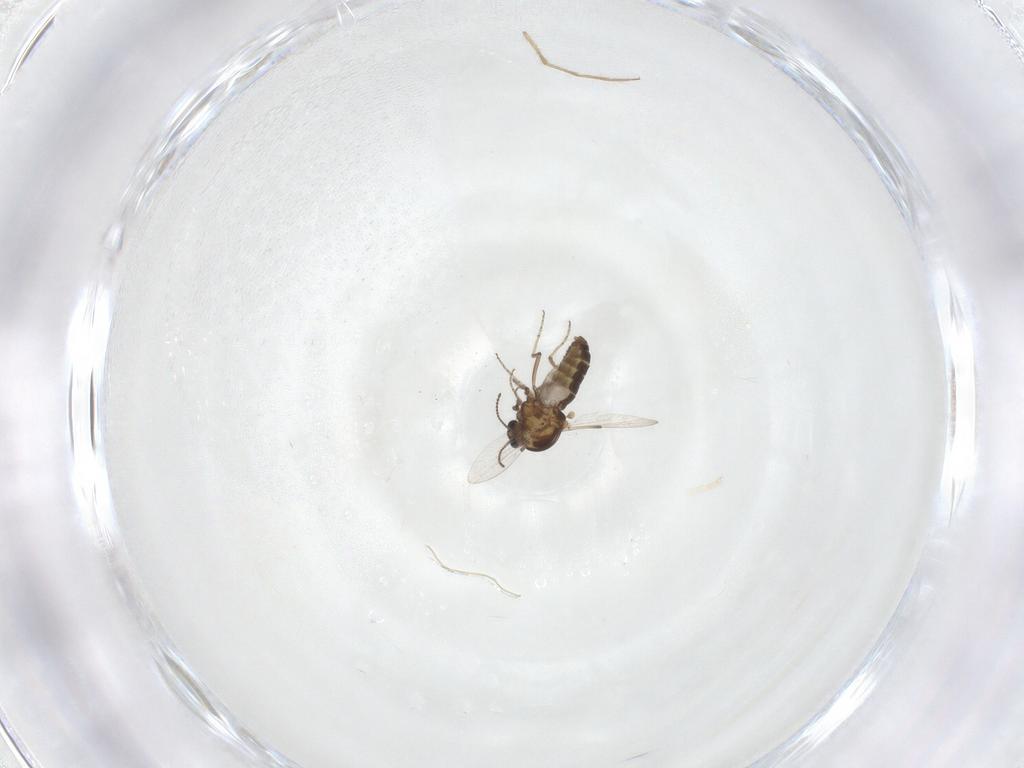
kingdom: Animalia
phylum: Arthropoda
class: Insecta
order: Diptera
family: Ceratopogonidae
